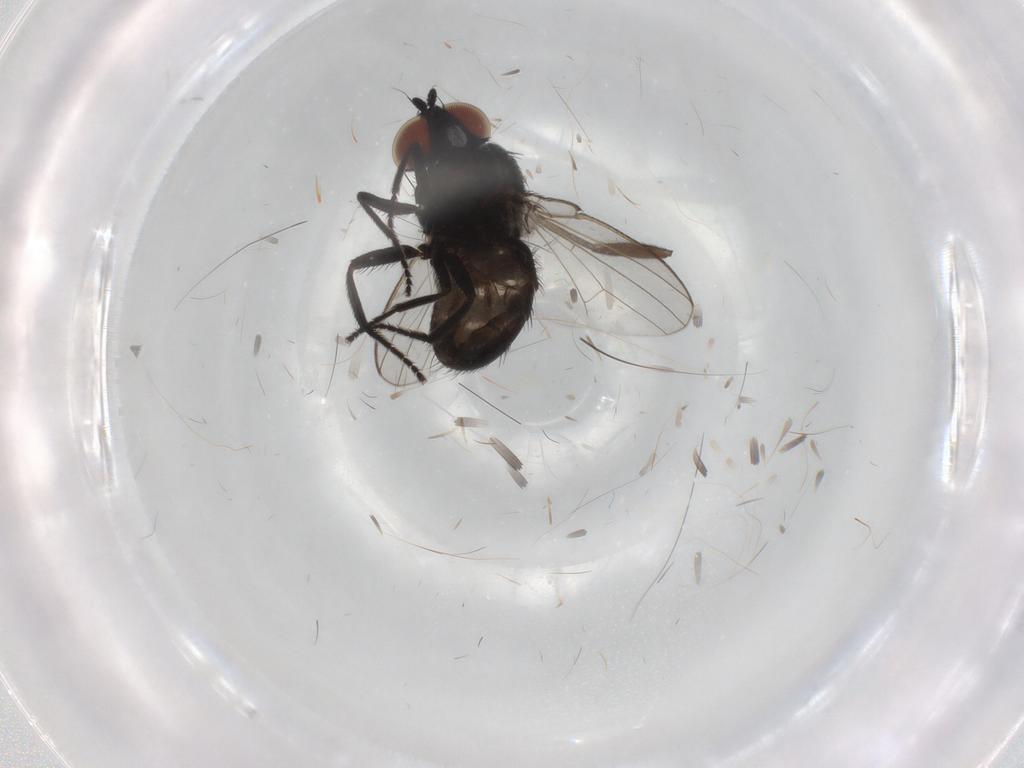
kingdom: Animalia
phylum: Arthropoda
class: Insecta
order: Diptera
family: Milichiidae
